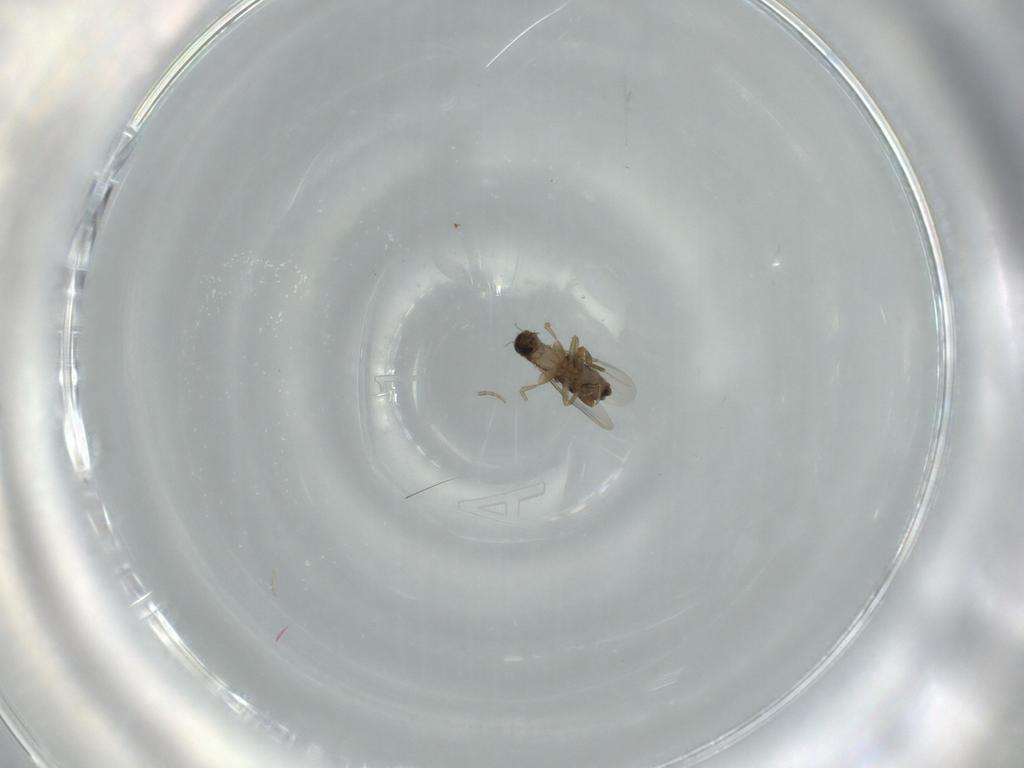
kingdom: Animalia
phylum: Arthropoda
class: Insecta
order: Diptera
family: Phoridae
